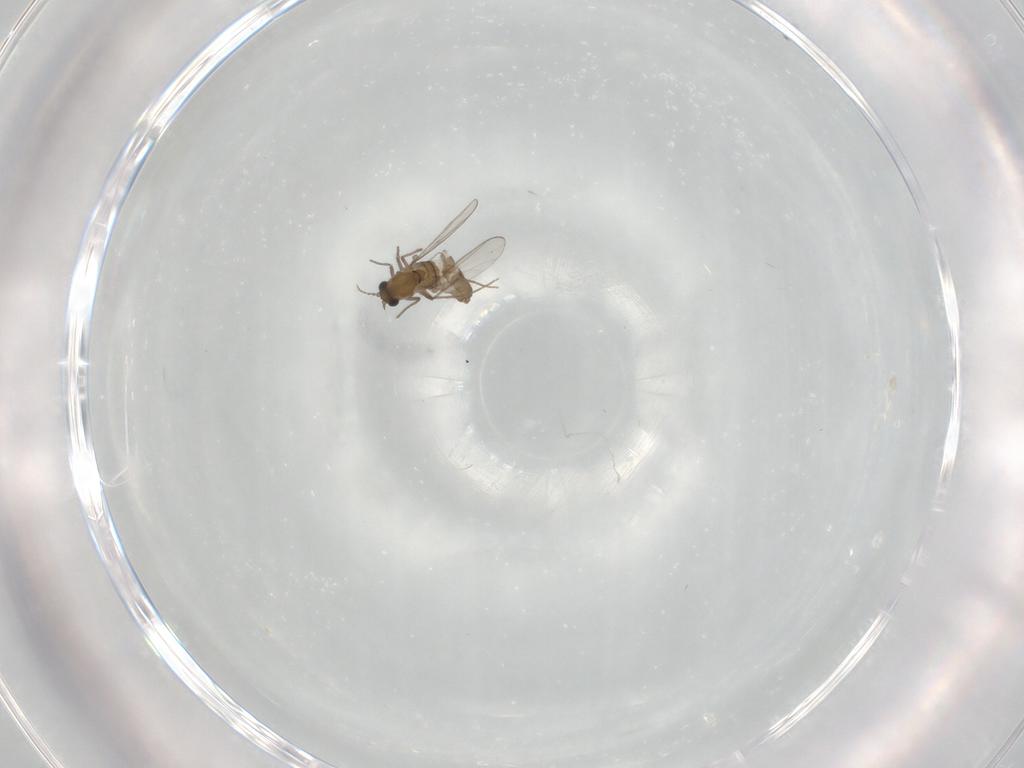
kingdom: Animalia
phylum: Arthropoda
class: Insecta
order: Diptera
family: Chironomidae
